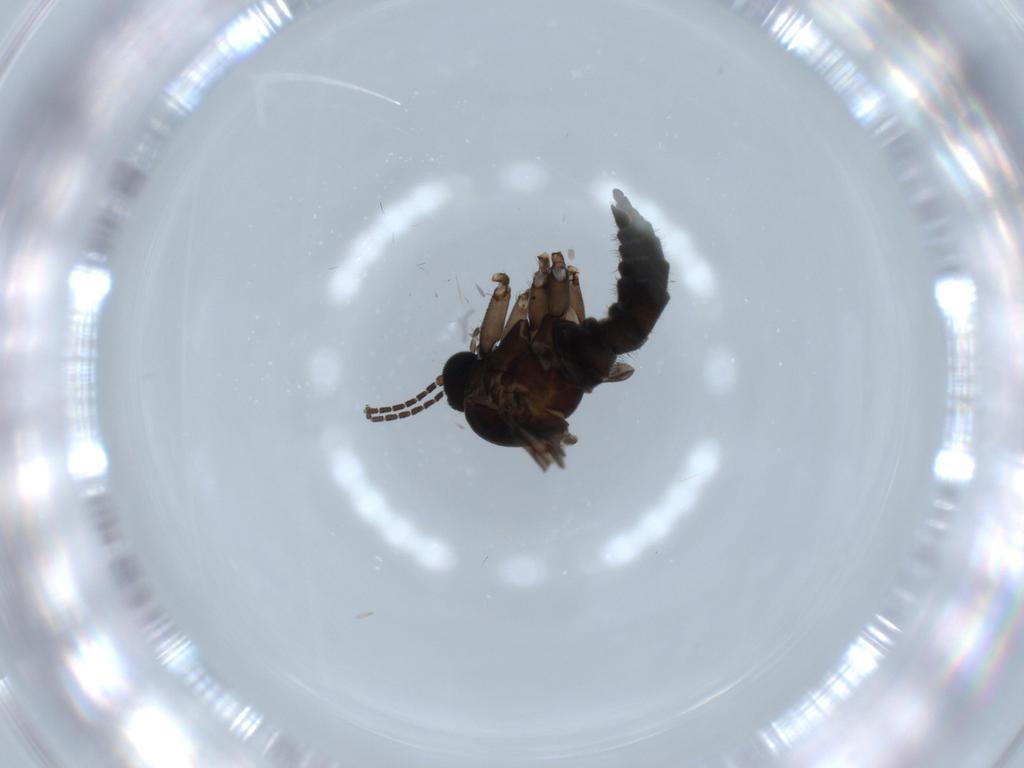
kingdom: Animalia
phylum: Arthropoda
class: Insecta
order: Diptera
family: Sciaridae
